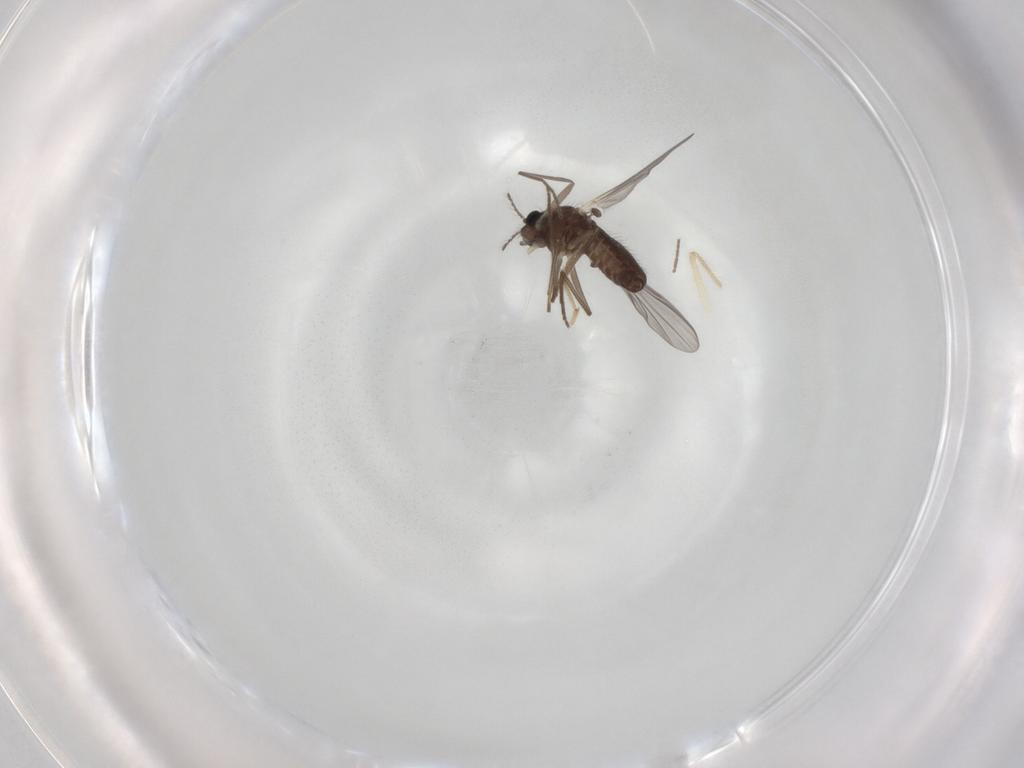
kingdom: Animalia
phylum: Arthropoda
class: Insecta
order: Diptera
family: Chironomidae
